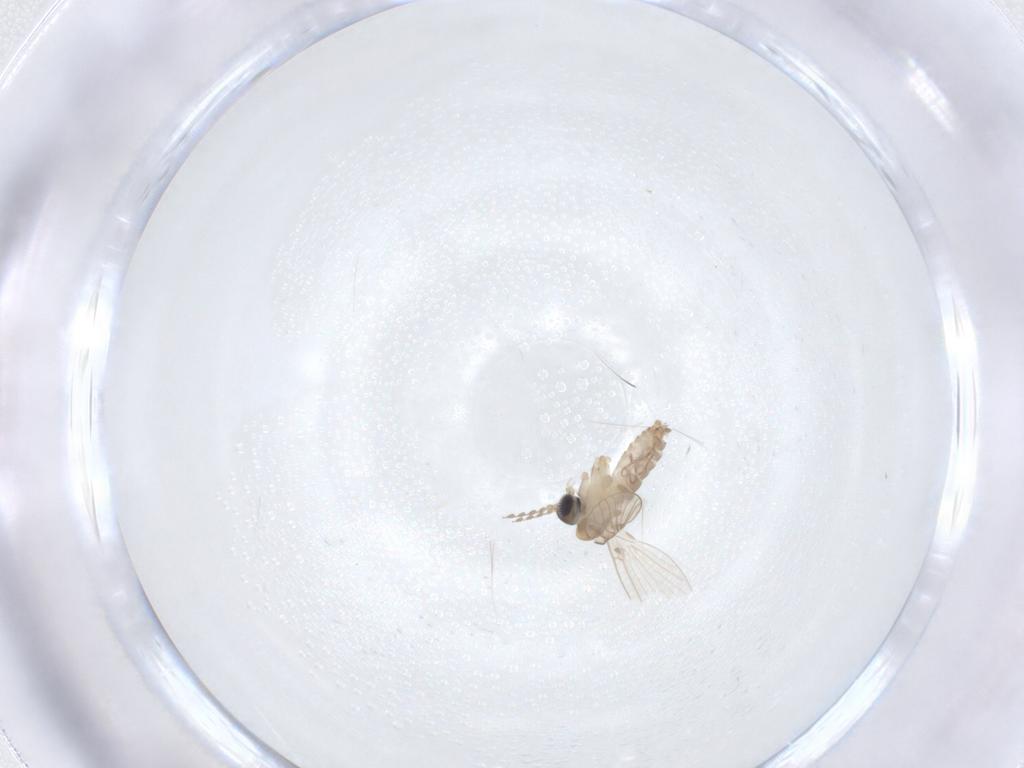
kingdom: Animalia
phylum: Arthropoda
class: Insecta
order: Diptera
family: Psychodidae
